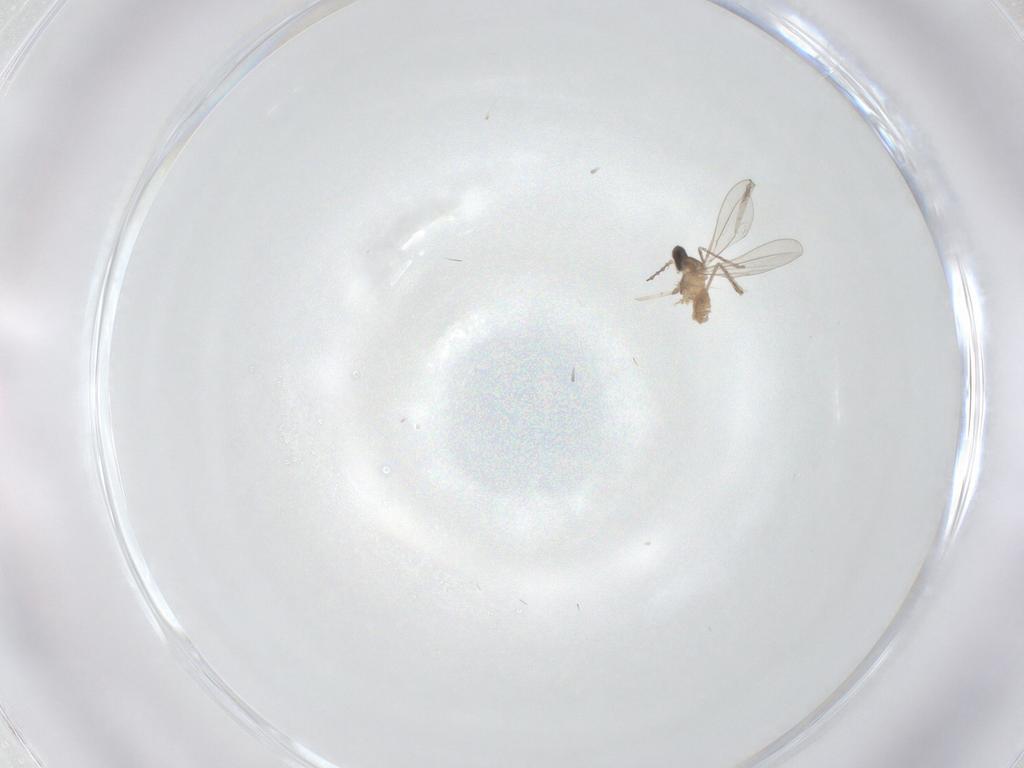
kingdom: Animalia
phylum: Arthropoda
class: Insecta
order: Diptera
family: Cecidomyiidae
